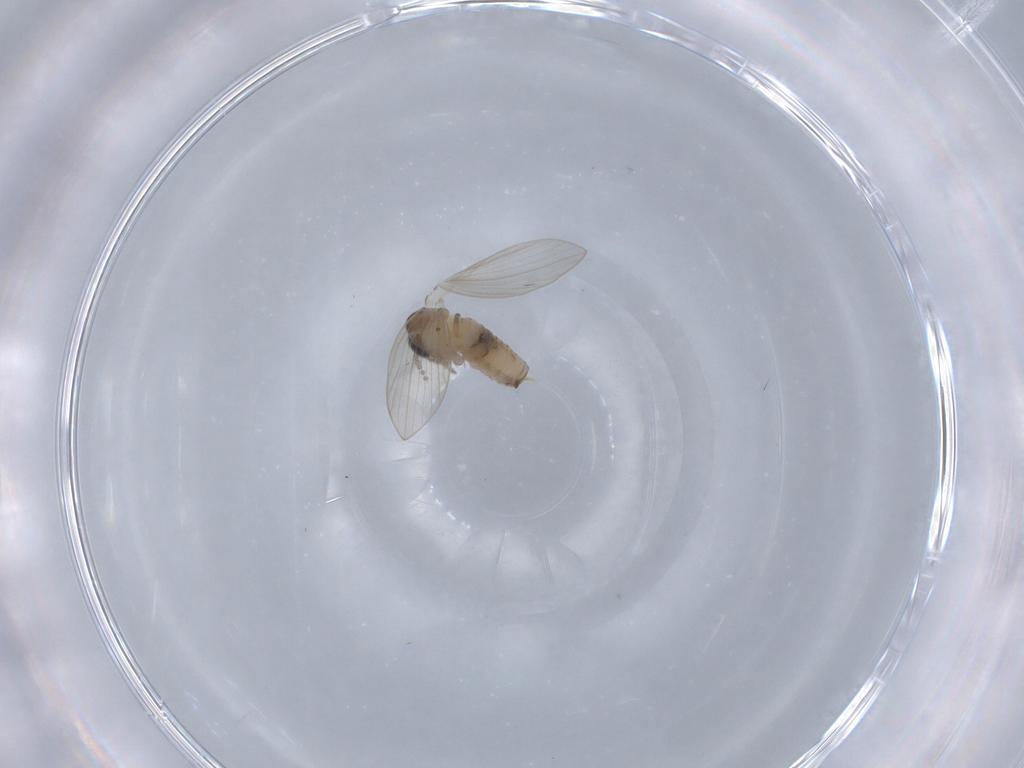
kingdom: Animalia
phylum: Arthropoda
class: Insecta
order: Diptera
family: Psychodidae
